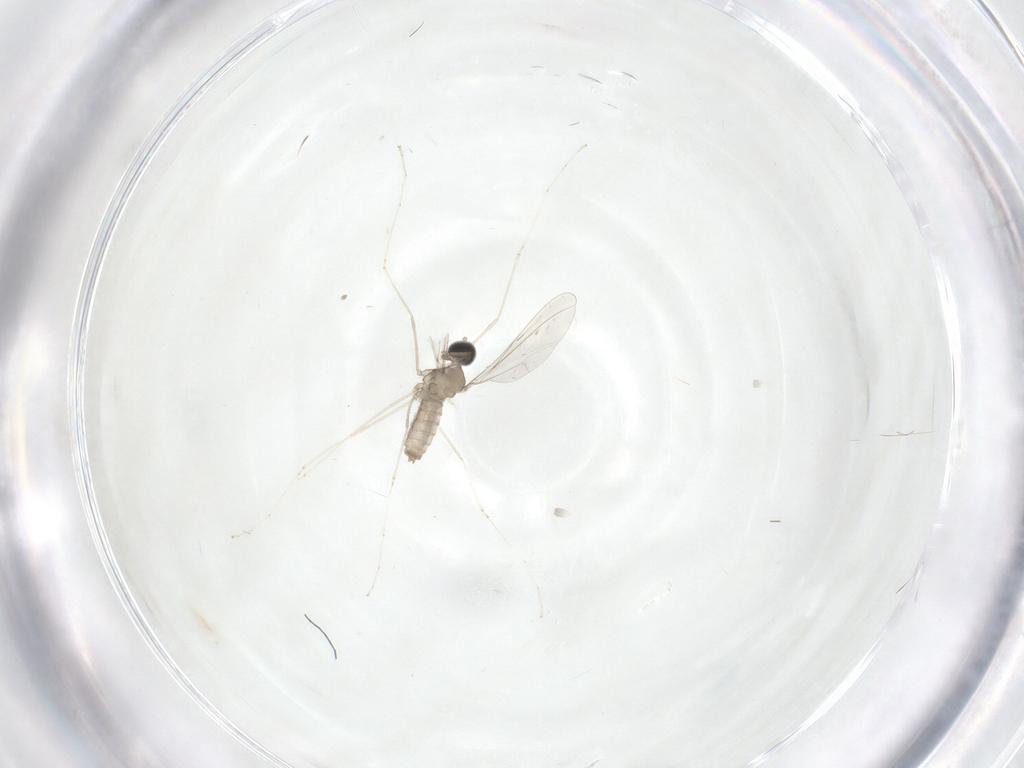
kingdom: Animalia
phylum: Arthropoda
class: Insecta
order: Diptera
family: Cecidomyiidae
